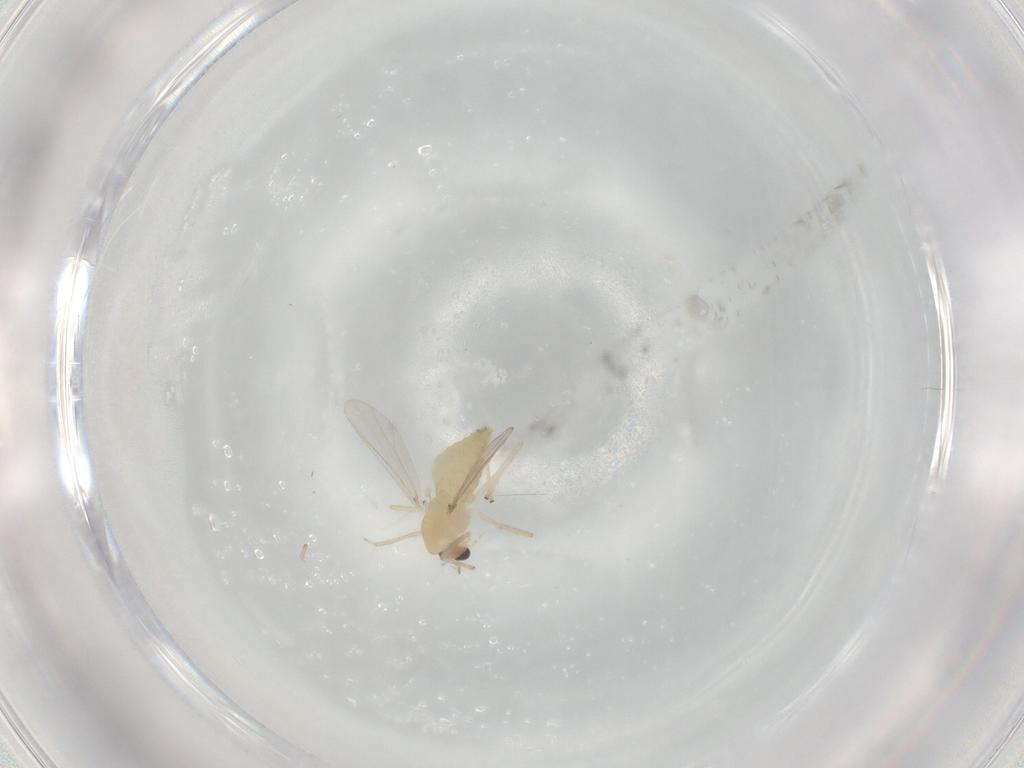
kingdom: Animalia
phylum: Arthropoda
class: Insecta
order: Diptera
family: Chironomidae
